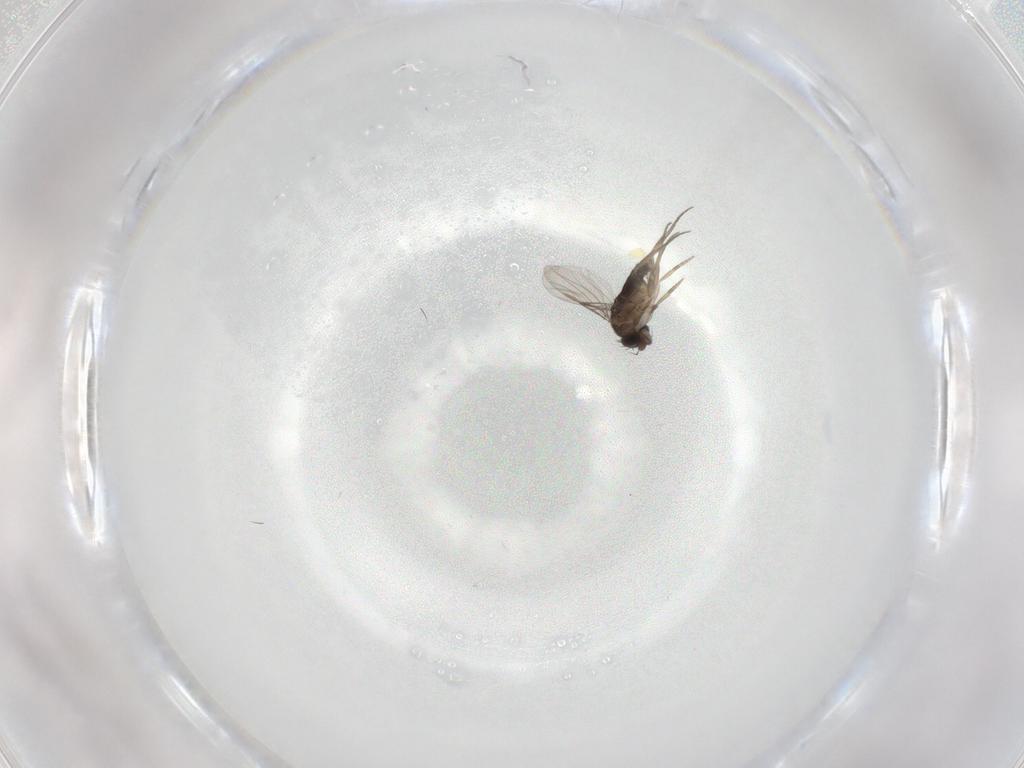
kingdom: Animalia
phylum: Arthropoda
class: Insecta
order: Diptera
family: Phoridae
